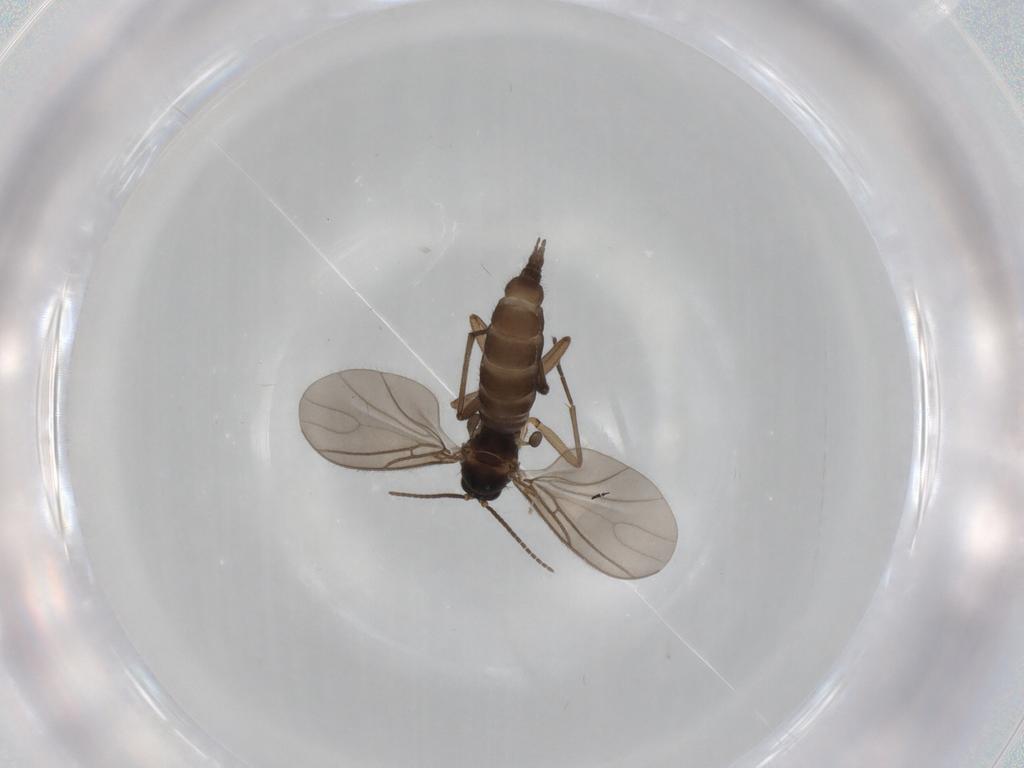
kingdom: Animalia
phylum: Arthropoda
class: Insecta
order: Diptera
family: Sciaridae
